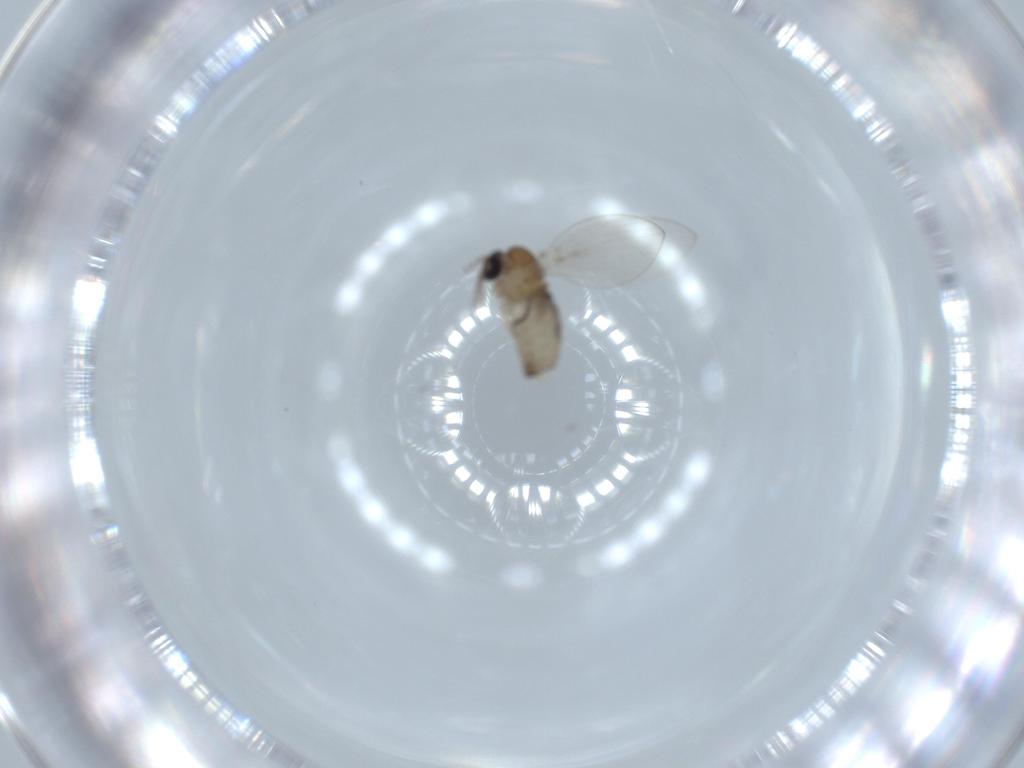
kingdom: Animalia
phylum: Arthropoda
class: Insecta
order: Diptera
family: Psychodidae
